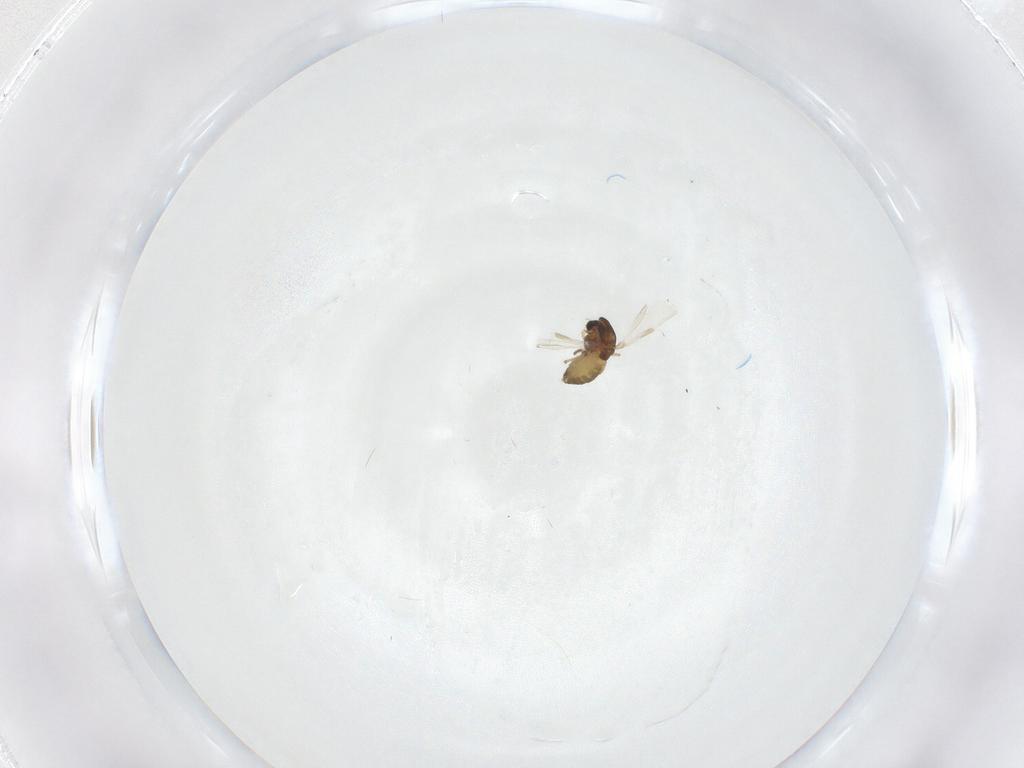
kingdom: Animalia
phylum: Arthropoda
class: Insecta
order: Diptera
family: Chironomidae
